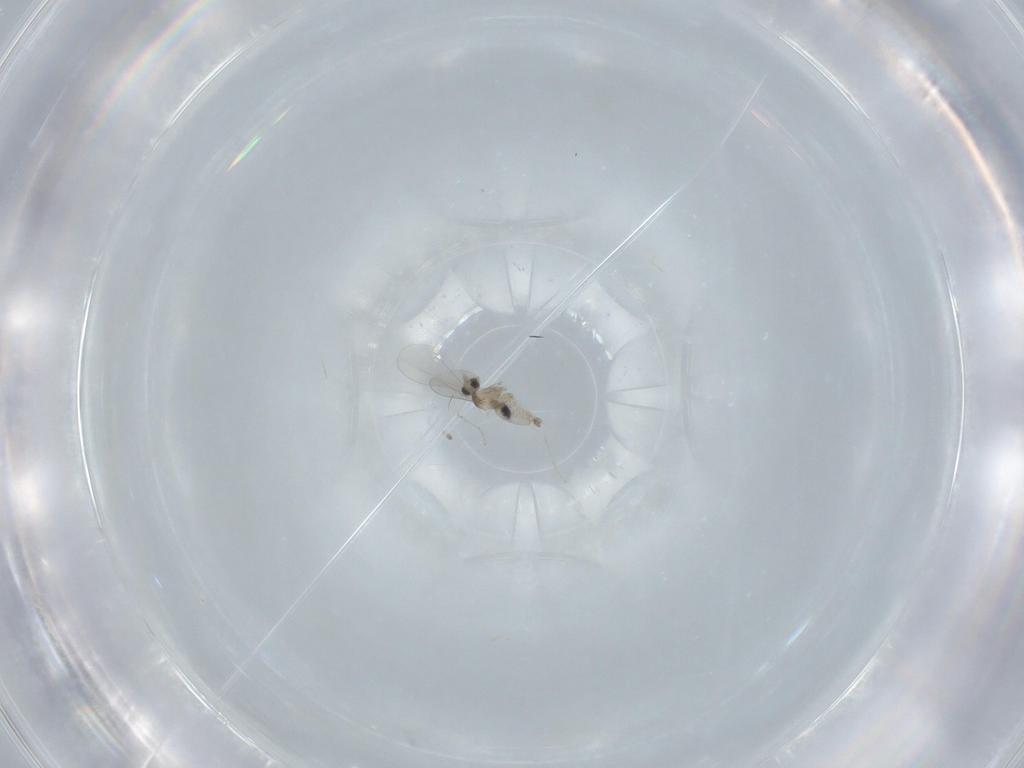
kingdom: Animalia
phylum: Arthropoda
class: Insecta
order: Diptera
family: Cecidomyiidae
